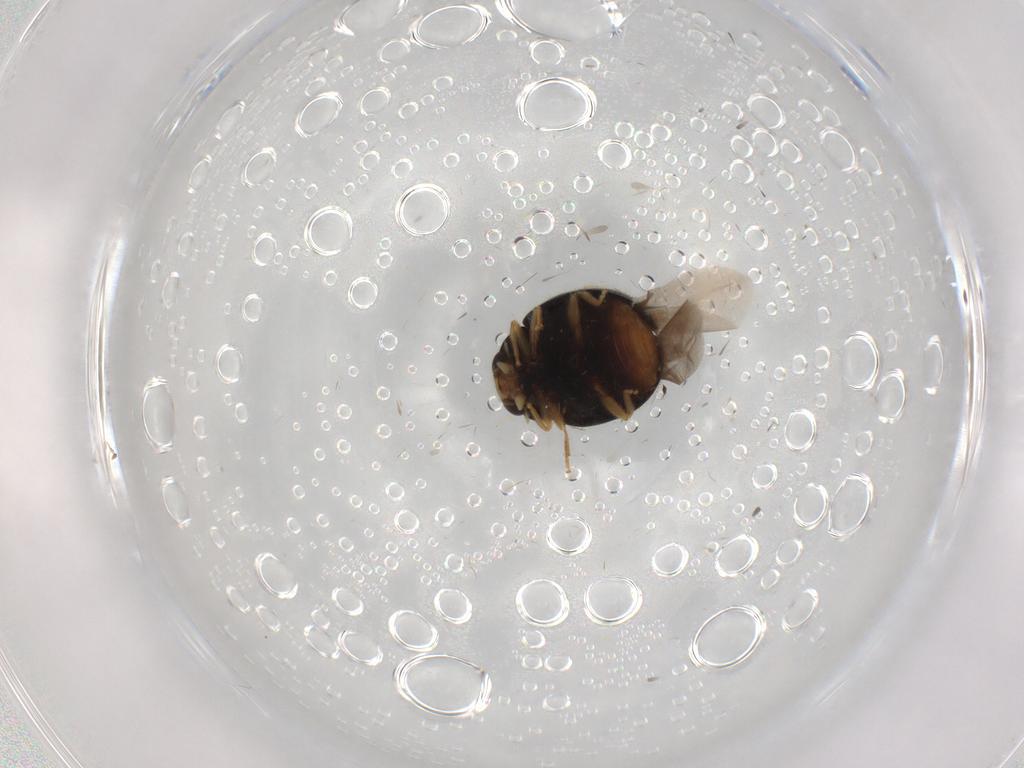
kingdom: Animalia
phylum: Arthropoda
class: Insecta
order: Coleoptera
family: Coccinellidae
